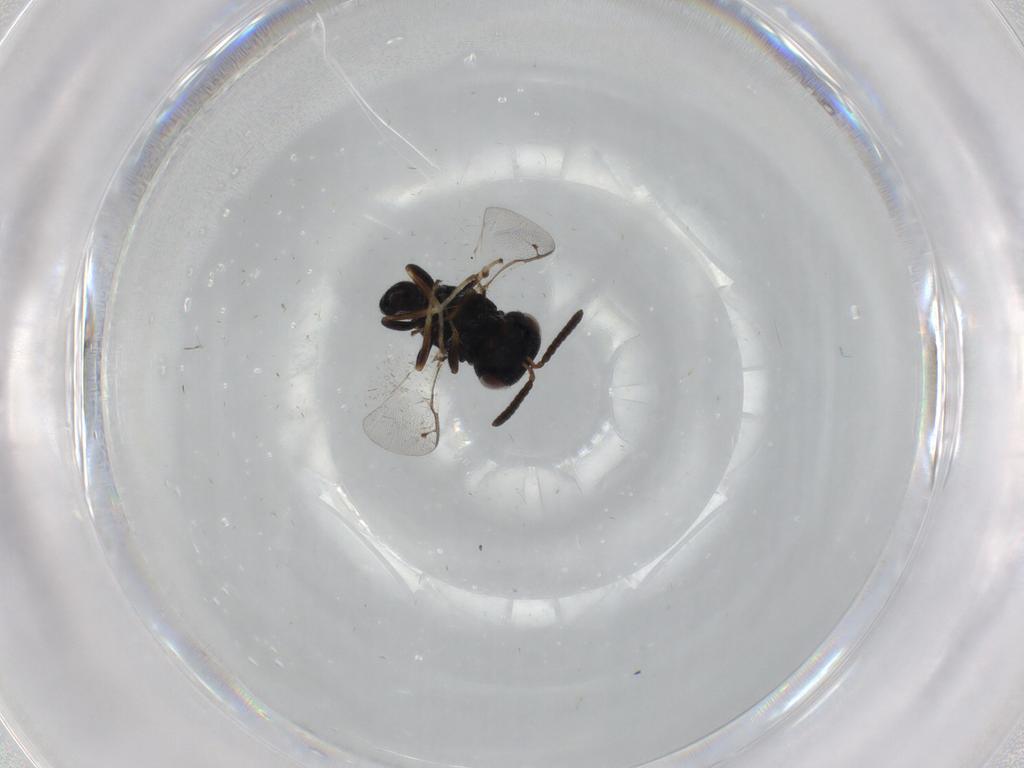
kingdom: Animalia
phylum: Arthropoda
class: Insecta
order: Hymenoptera
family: Pteromalidae
